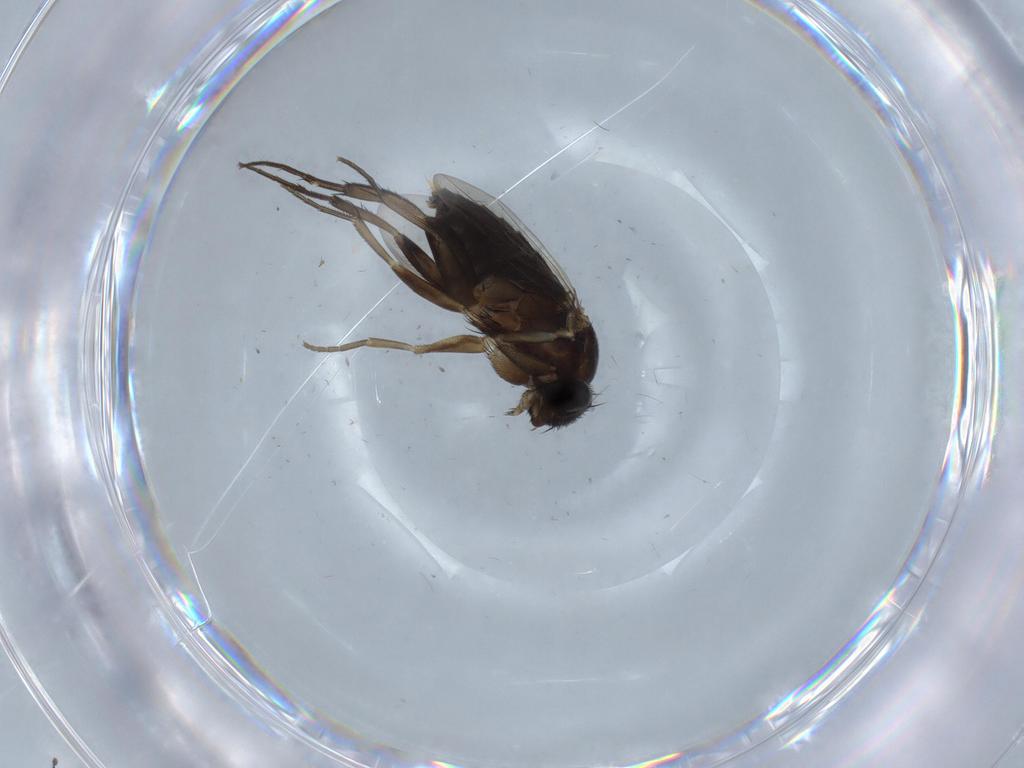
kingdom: Animalia
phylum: Arthropoda
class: Insecta
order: Diptera
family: Phoridae
